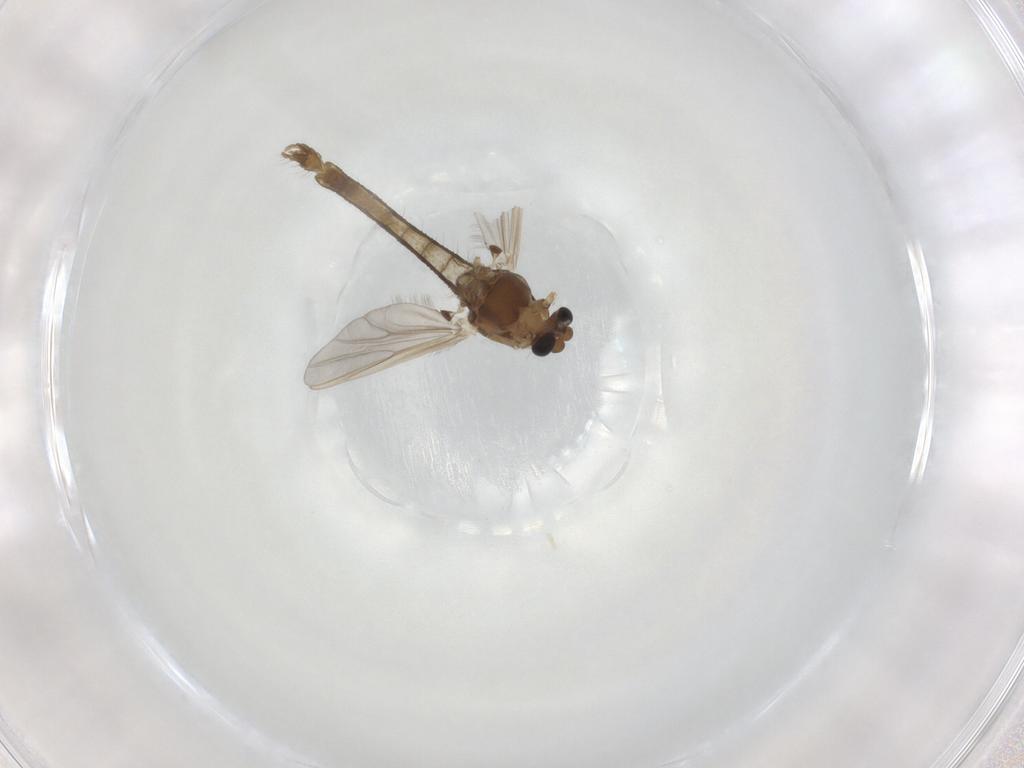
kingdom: Animalia
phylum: Arthropoda
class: Insecta
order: Diptera
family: Chironomidae
